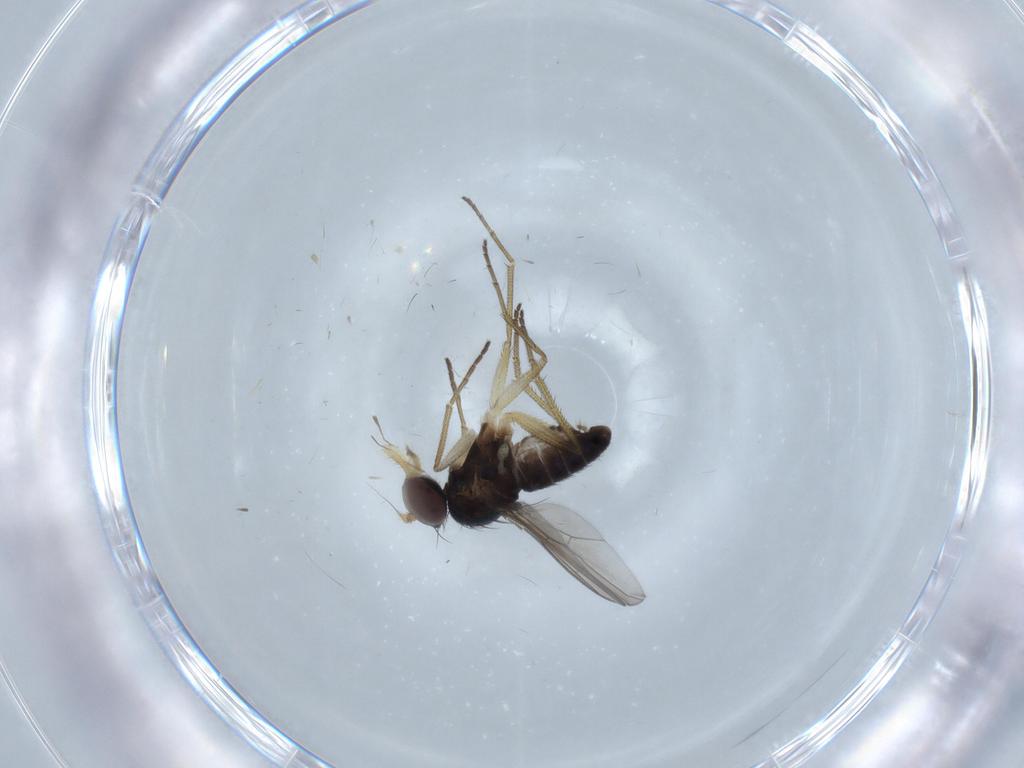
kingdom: Animalia
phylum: Arthropoda
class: Insecta
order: Diptera
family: Dolichopodidae
